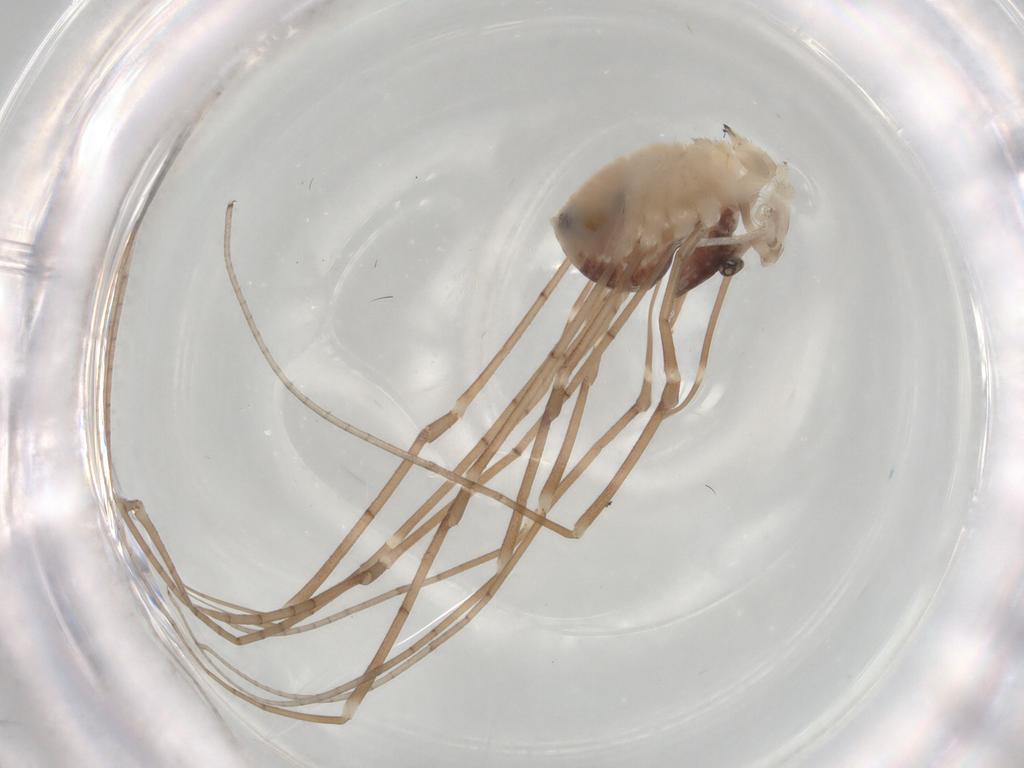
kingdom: Animalia
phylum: Arthropoda
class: Arachnida
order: Opiliones
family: Sclerosomatidae
